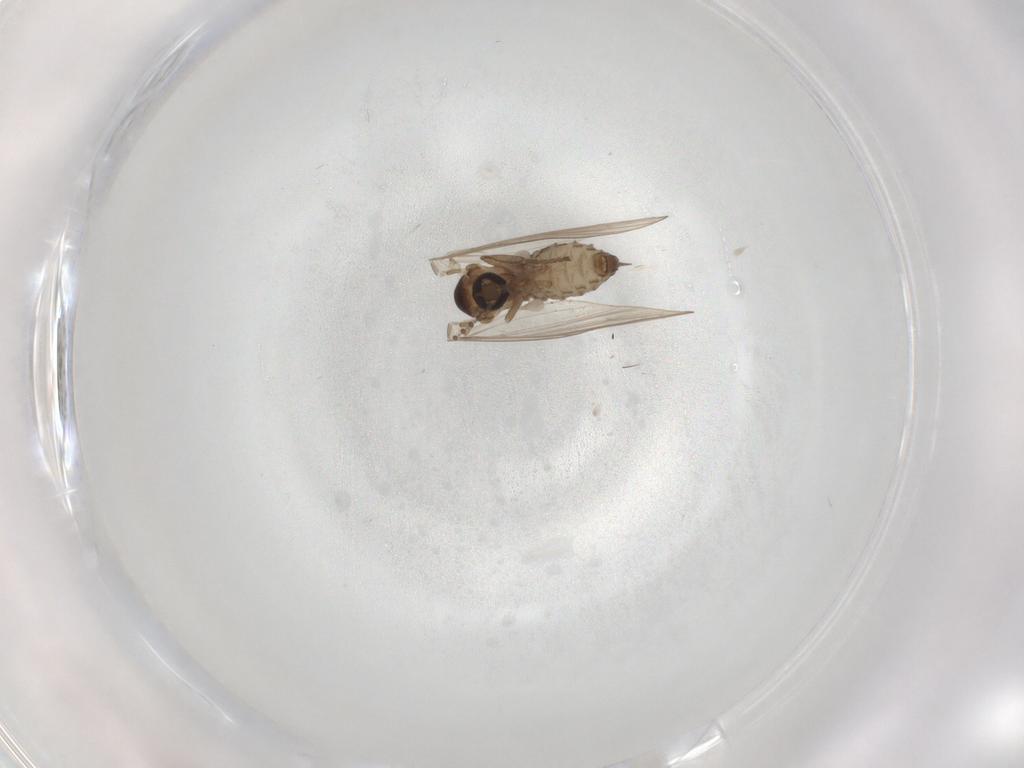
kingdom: Animalia
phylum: Arthropoda
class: Insecta
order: Diptera
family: Psychodidae
